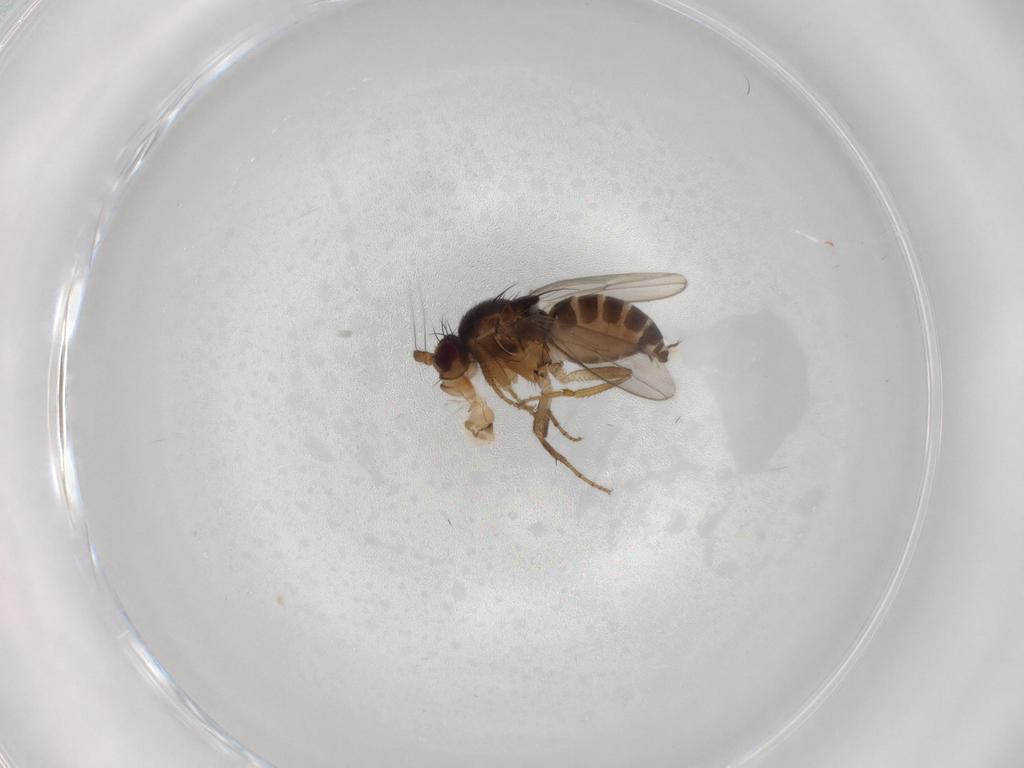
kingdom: Animalia
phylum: Arthropoda
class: Insecta
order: Diptera
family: Sphaeroceridae
